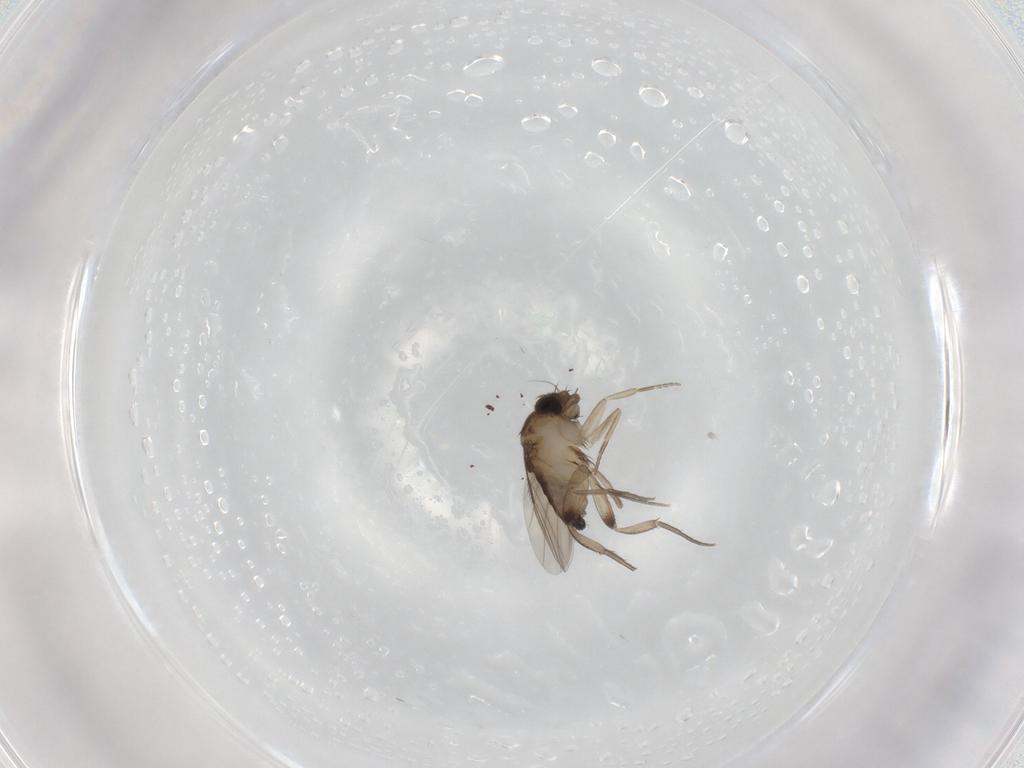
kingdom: Animalia
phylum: Arthropoda
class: Insecta
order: Diptera
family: Phoridae
